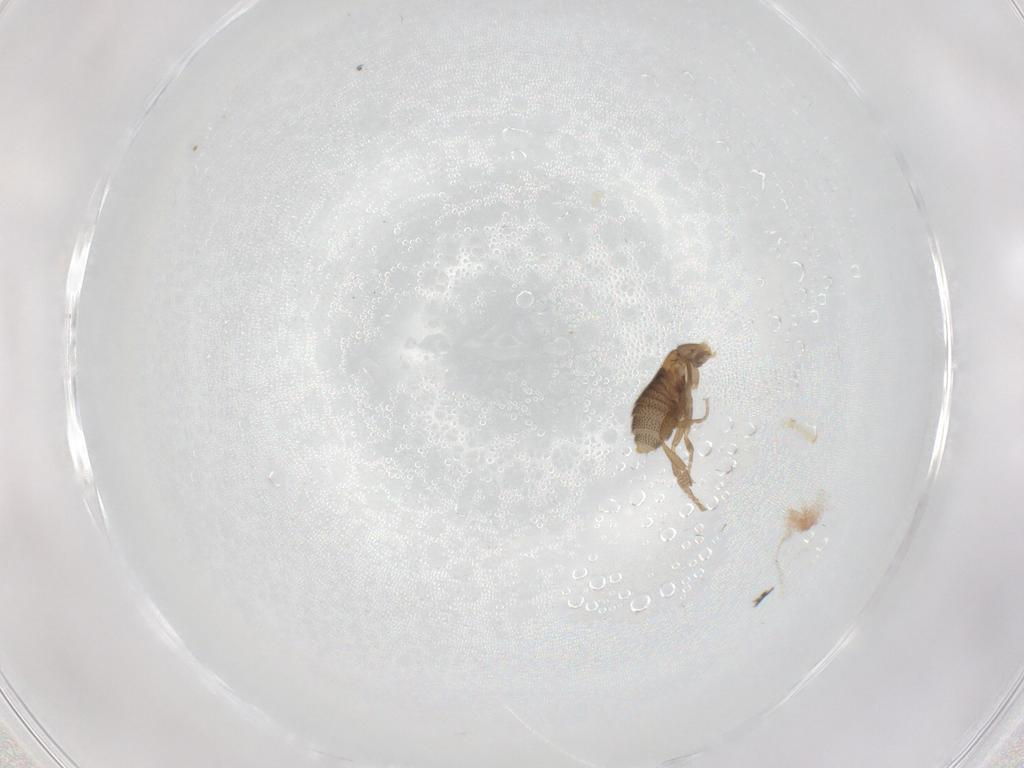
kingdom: Animalia
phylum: Arthropoda
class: Insecta
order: Diptera
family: Phoridae
